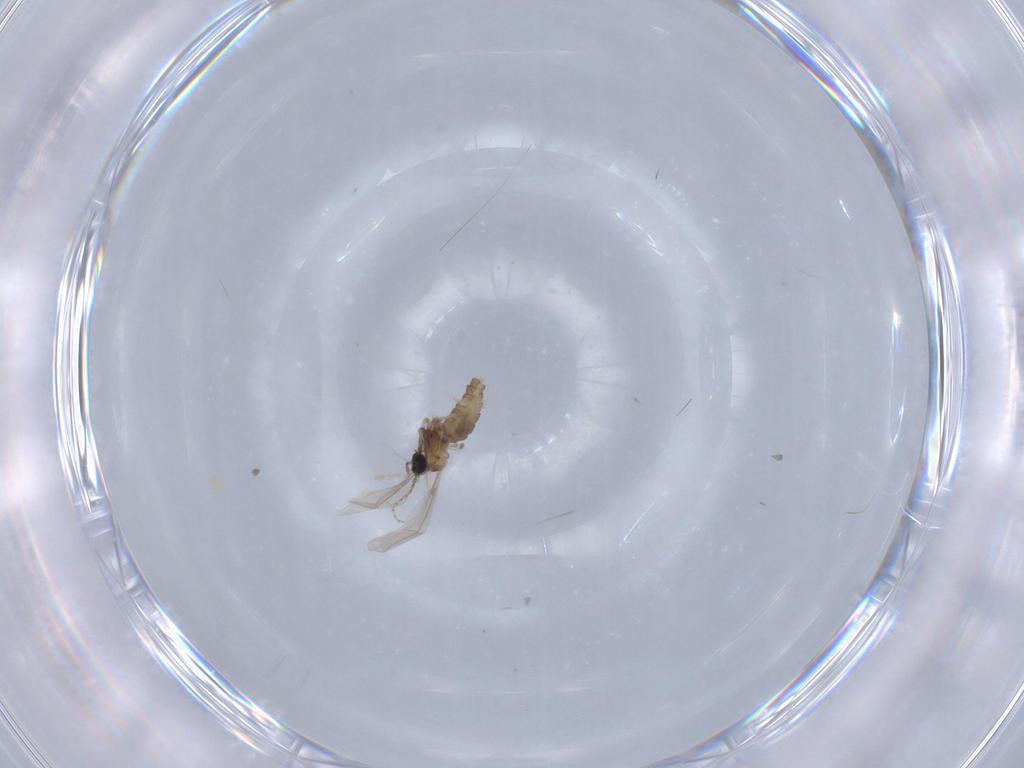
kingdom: Animalia
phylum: Arthropoda
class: Insecta
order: Diptera
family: Cecidomyiidae
